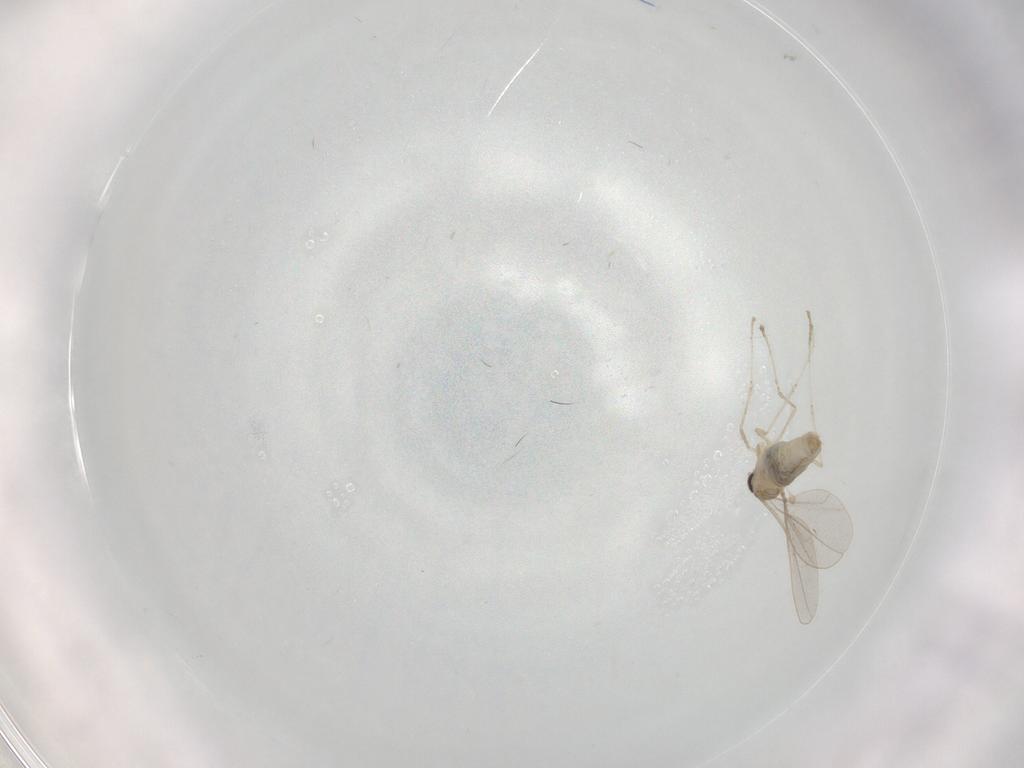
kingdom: Animalia
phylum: Arthropoda
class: Insecta
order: Diptera
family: Cecidomyiidae
